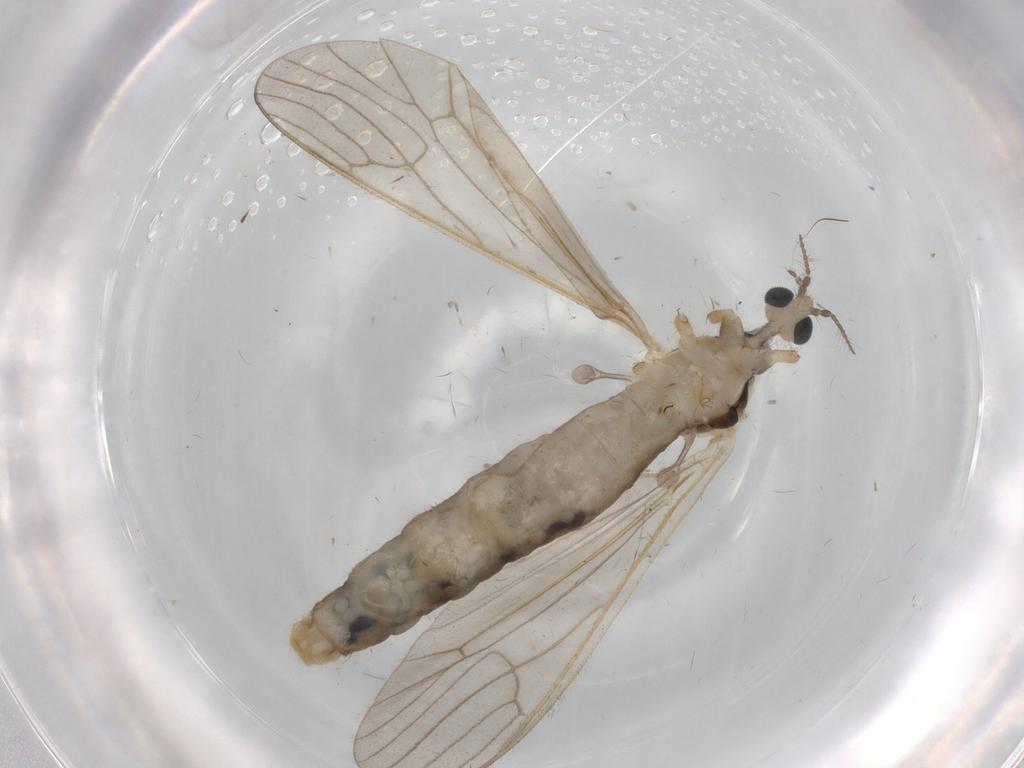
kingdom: Animalia
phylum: Arthropoda
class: Insecta
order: Diptera
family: Limoniidae
